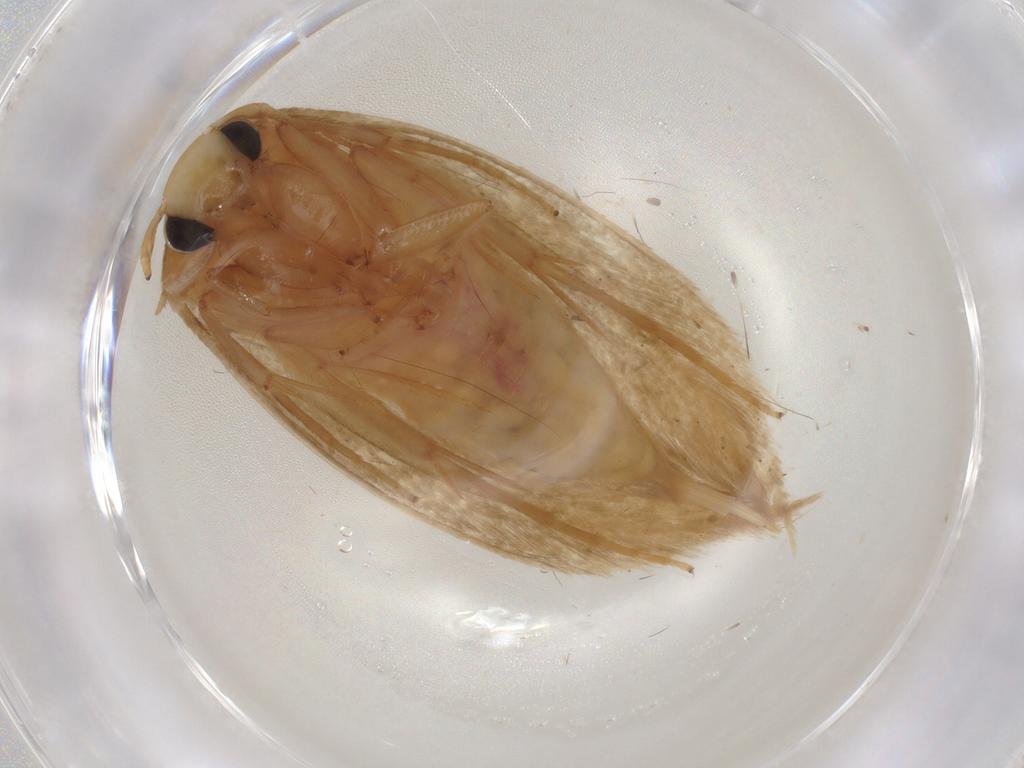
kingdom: Animalia
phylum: Arthropoda
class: Insecta
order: Lepidoptera
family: Tineidae
